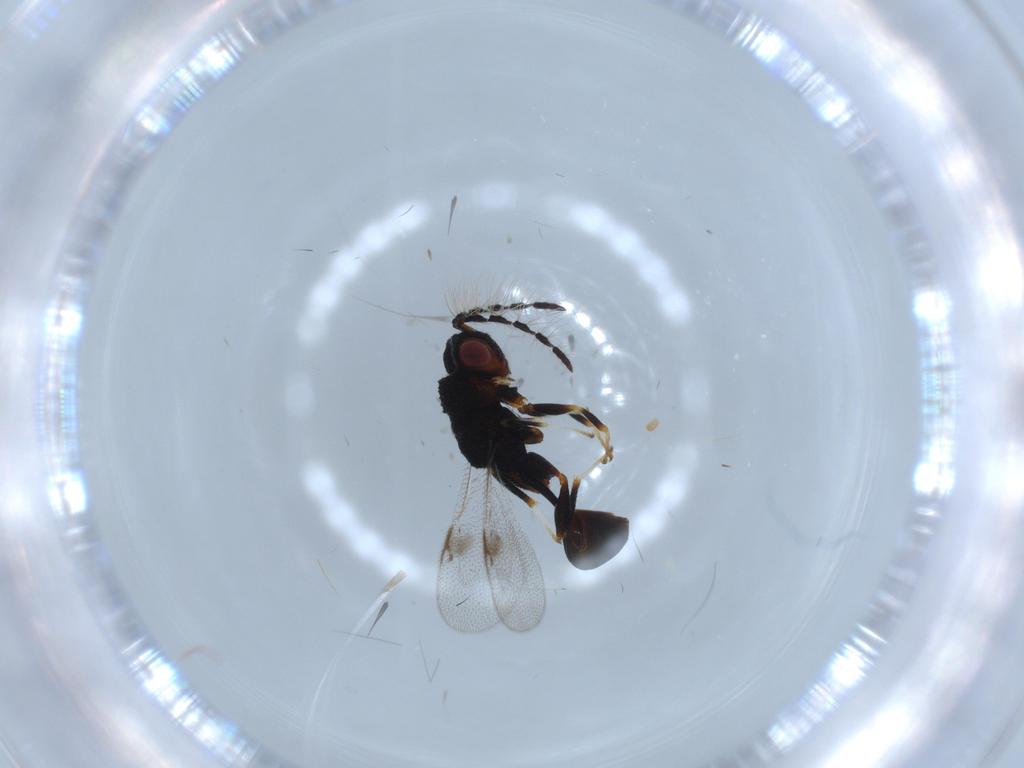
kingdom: Animalia
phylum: Arthropoda
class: Insecta
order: Hymenoptera
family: Eurytomidae
